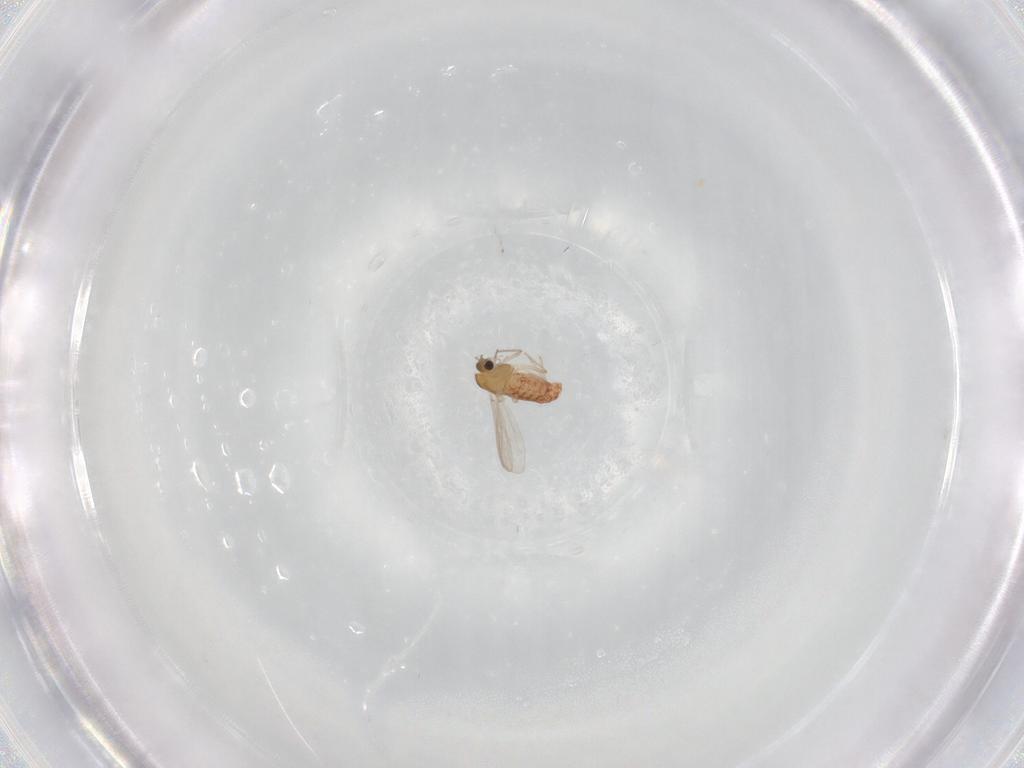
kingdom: Animalia
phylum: Arthropoda
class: Insecta
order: Diptera
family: Chironomidae
